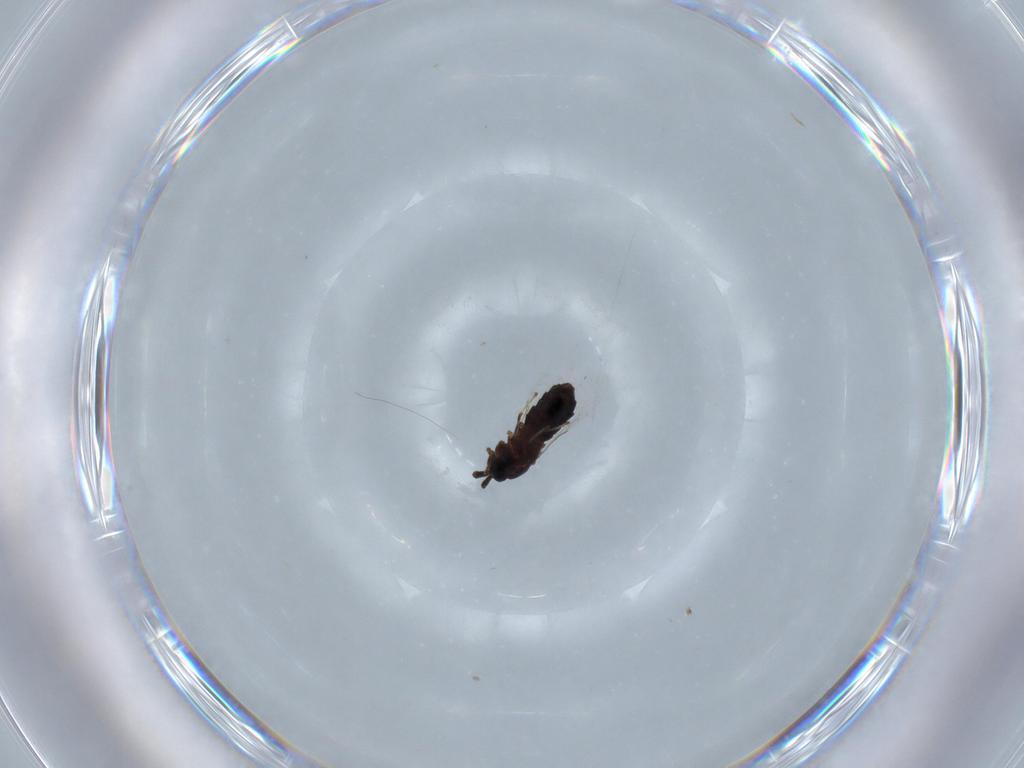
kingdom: Animalia
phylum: Arthropoda
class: Insecta
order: Diptera
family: Scatopsidae
